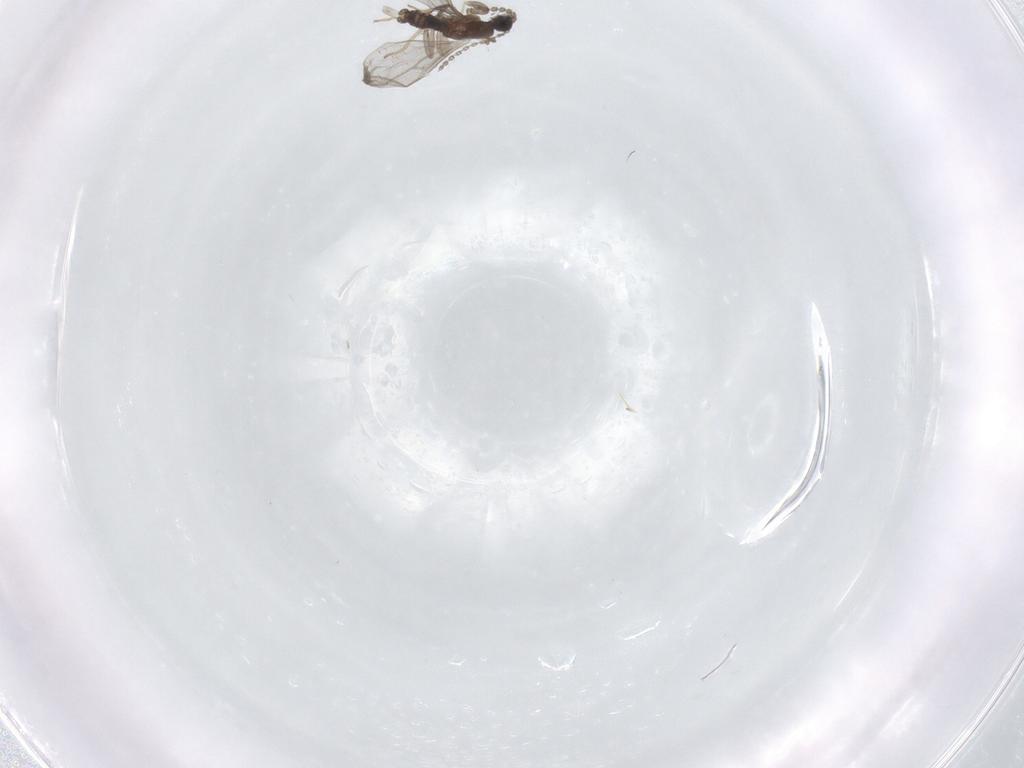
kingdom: Animalia
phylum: Arthropoda
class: Insecta
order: Diptera
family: Cecidomyiidae
